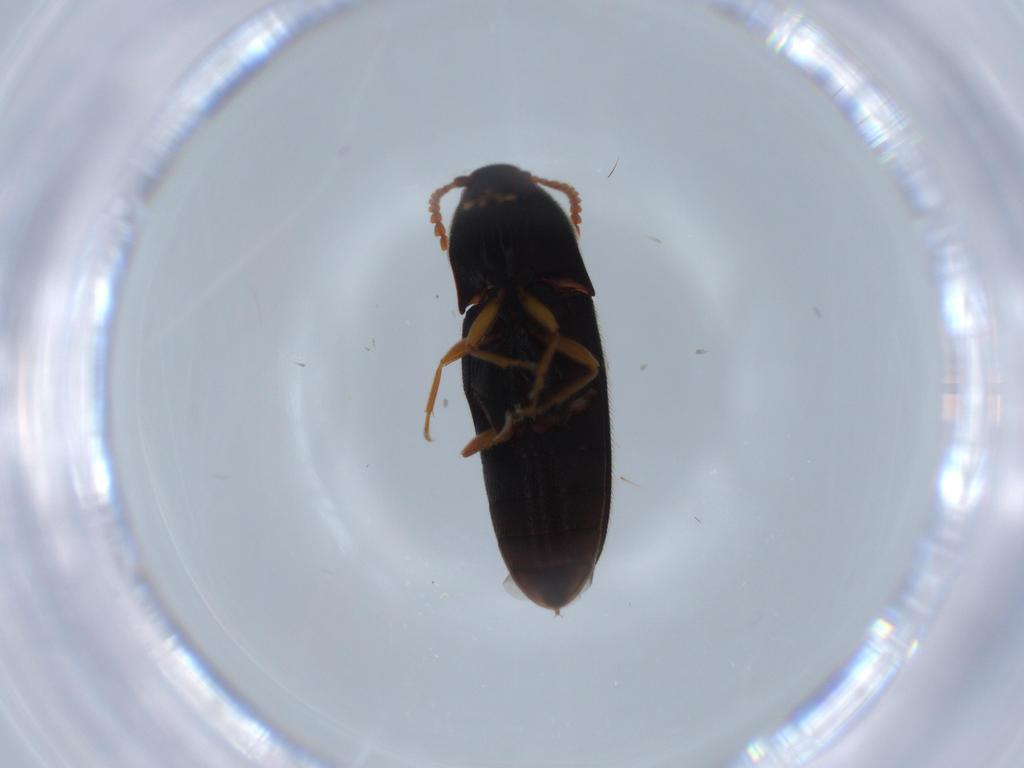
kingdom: Animalia
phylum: Arthropoda
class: Insecta
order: Coleoptera
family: Elateridae
